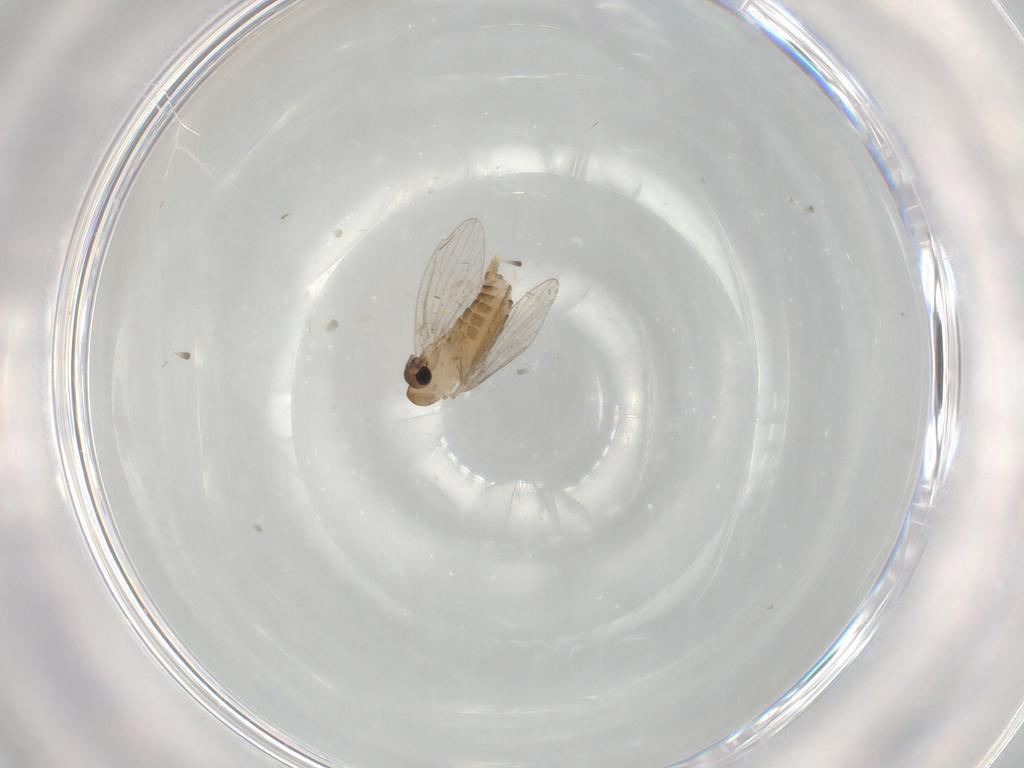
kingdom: Animalia
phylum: Arthropoda
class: Insecta
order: Diptera
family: Psychodidae
